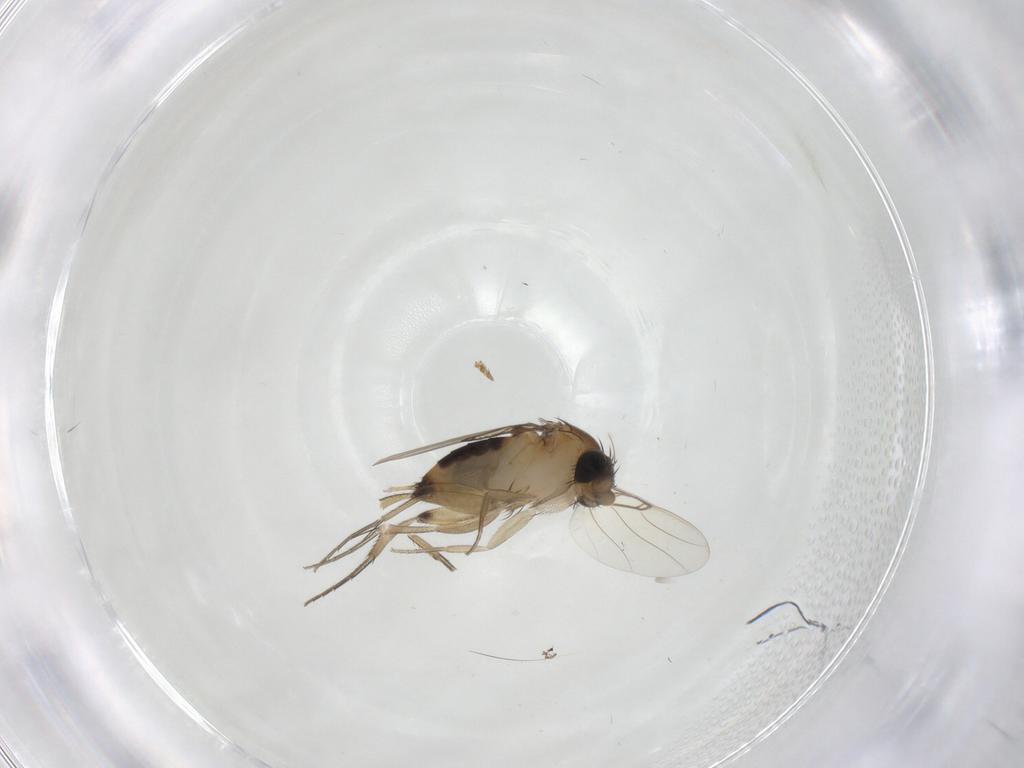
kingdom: Animalia
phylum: Arthropoda
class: Insecta
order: Diptera
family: Phoridae
